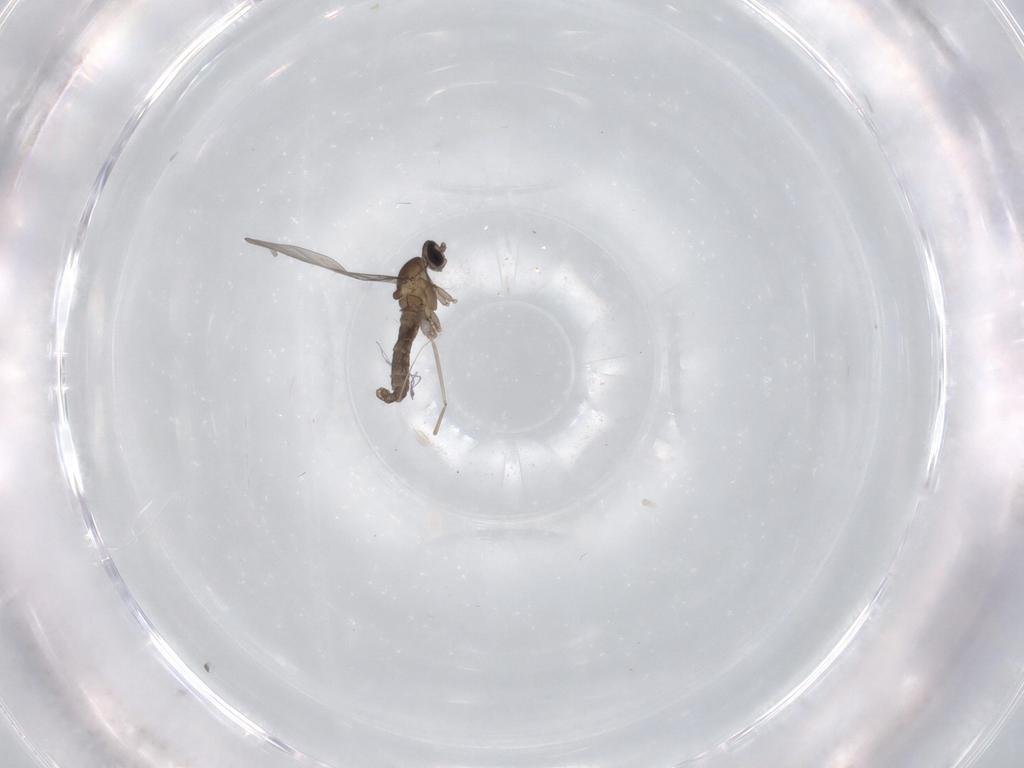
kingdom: Animalia
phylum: Arthropoda
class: Insecta
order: Diptera
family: Cecidomyiidae
